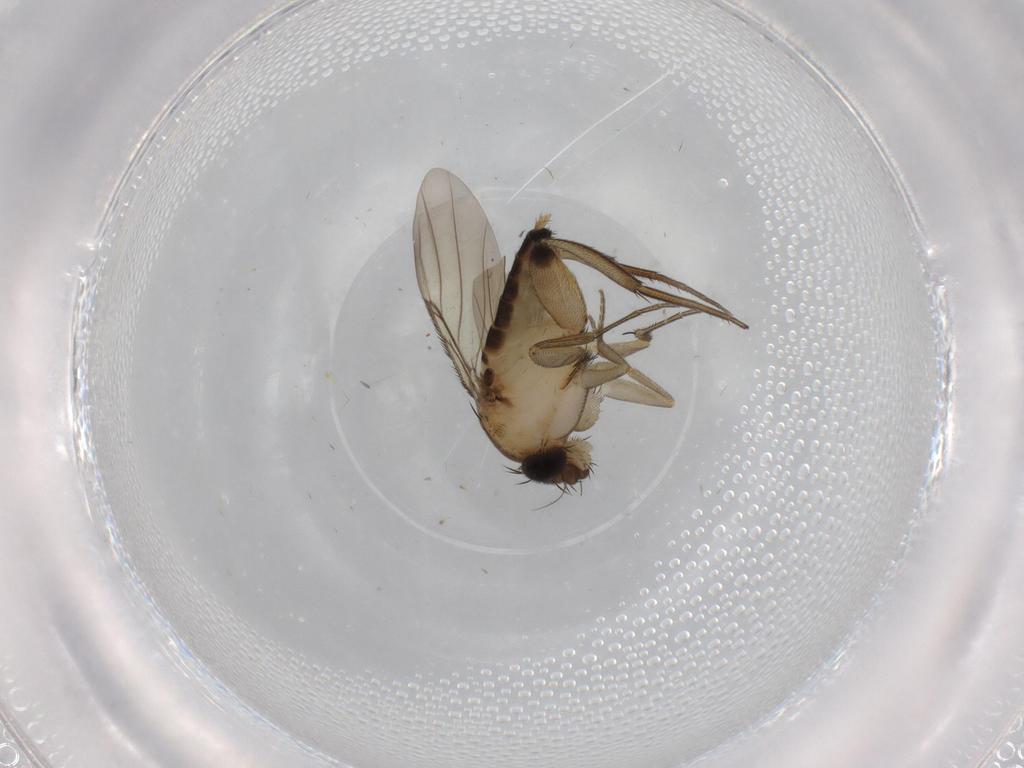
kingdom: Animalia
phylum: Arthropoda
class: Insecta
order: Diptera
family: Phoridae
